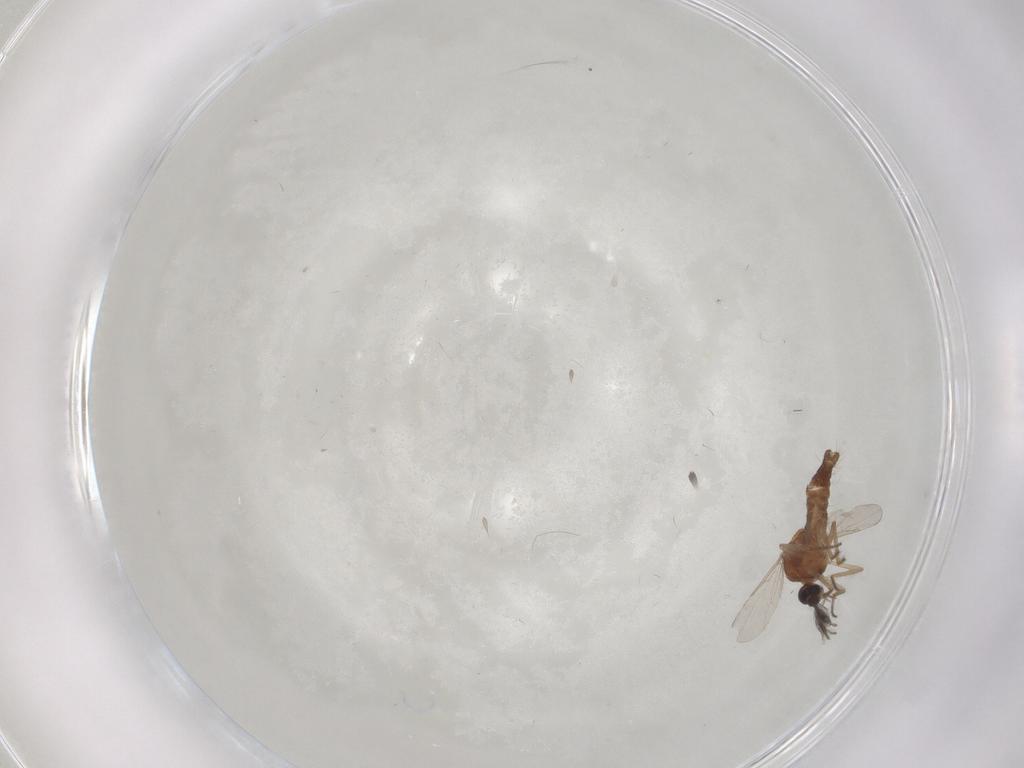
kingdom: Animalia
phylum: Arthropoda
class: Insecta
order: Diptera
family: Ceratopogonidae
